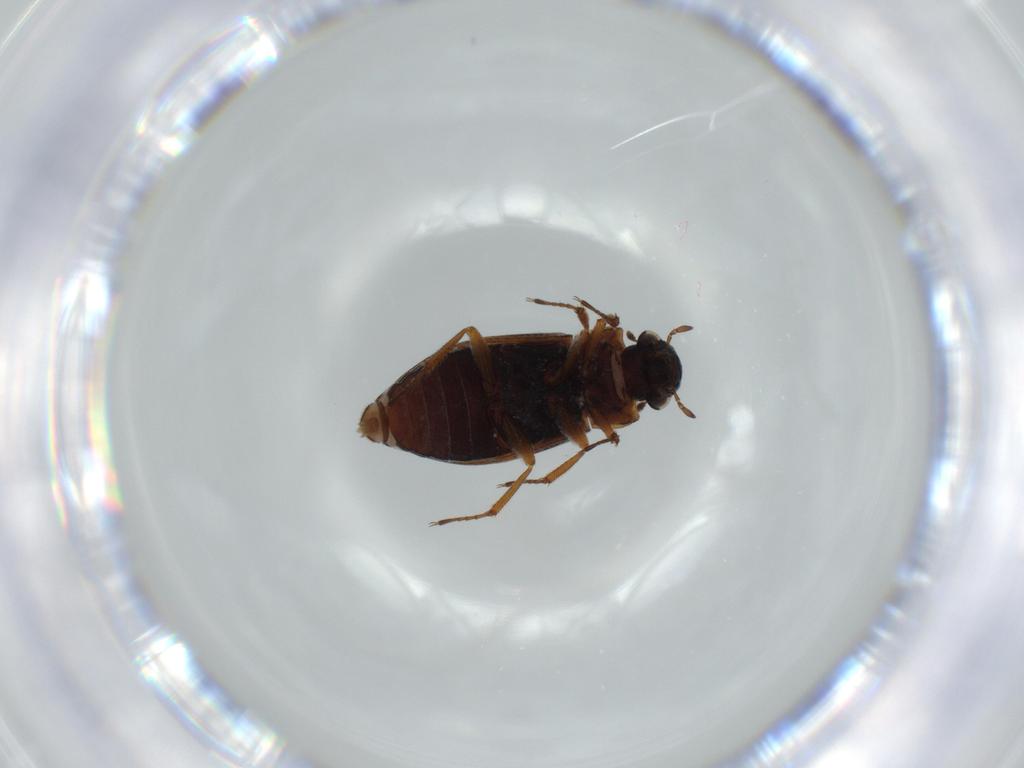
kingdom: Animalia
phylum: Arthropoda
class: Insecta
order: Coleoptera
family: Helophoridae
